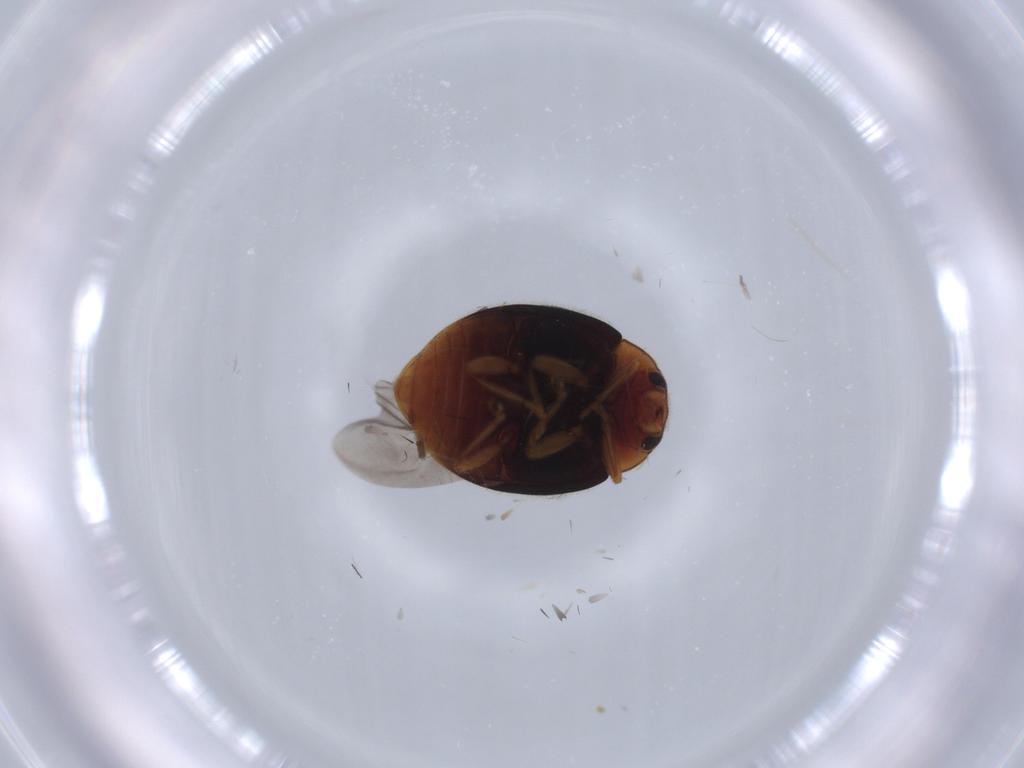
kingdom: Animalia
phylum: Arthropoda
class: Insecta
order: Coleoptera
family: Coccinellidae
